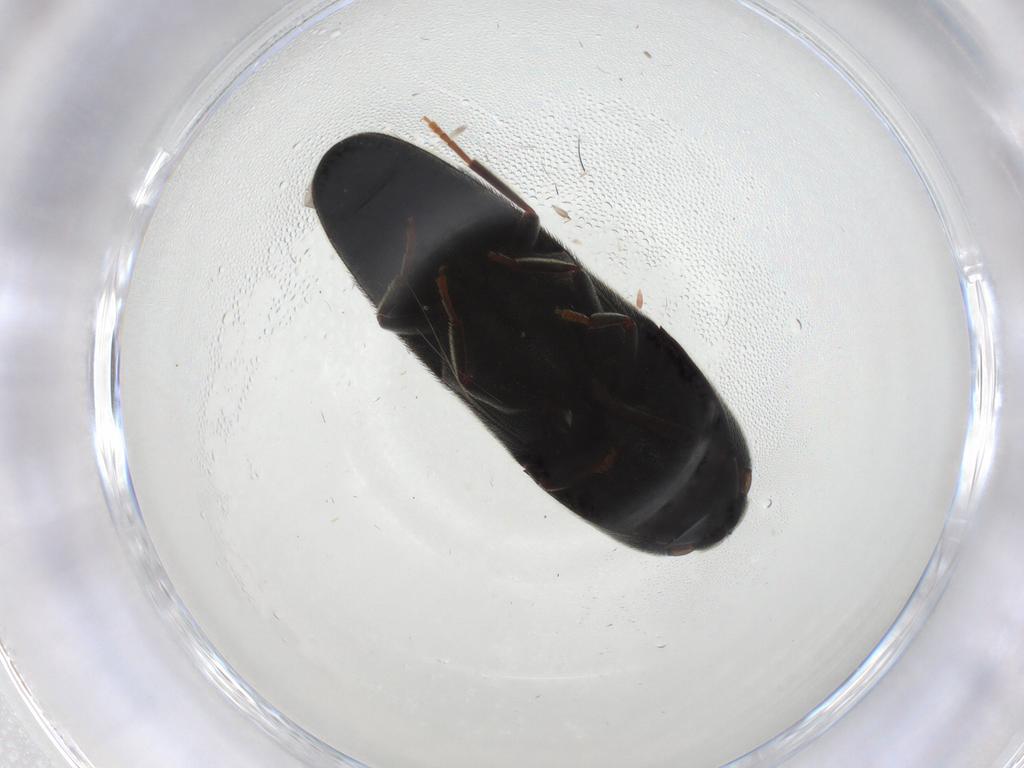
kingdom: Animalia
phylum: Arthropoda
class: Insecta
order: Coleoptera
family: Eucnemidae
